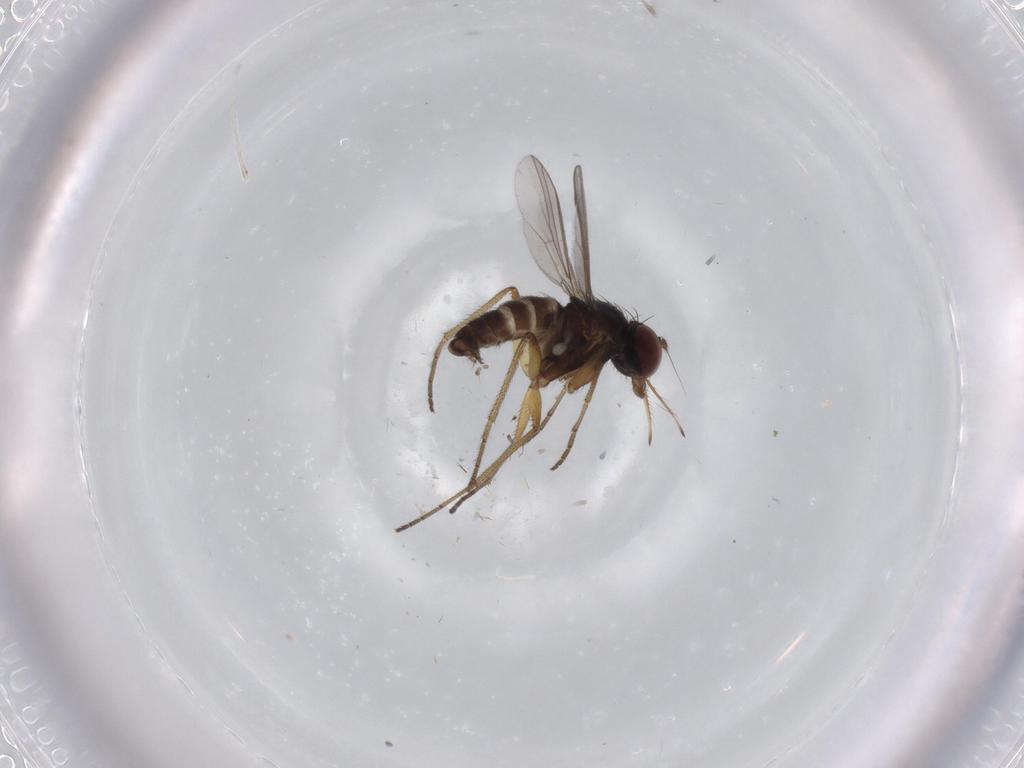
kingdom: Animalia
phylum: Arthropoda
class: Insecta
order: Diptera
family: Dolichopodidae
